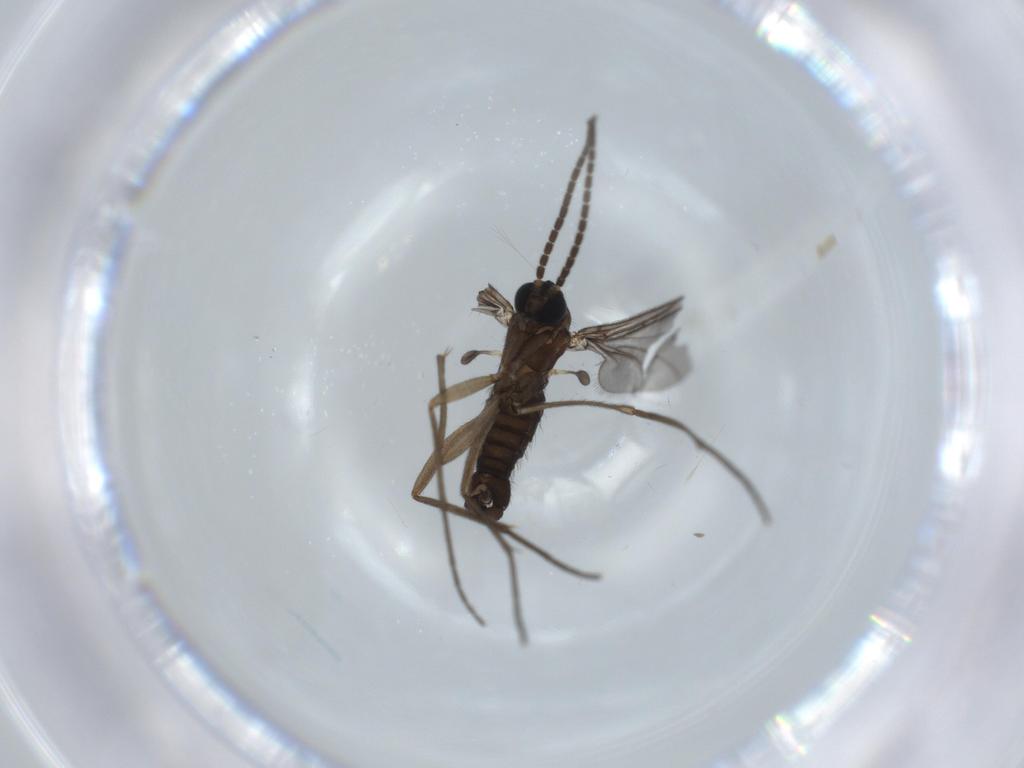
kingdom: Animalia
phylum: Arthropoda
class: Insecta
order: Diptera
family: Sciaridae
